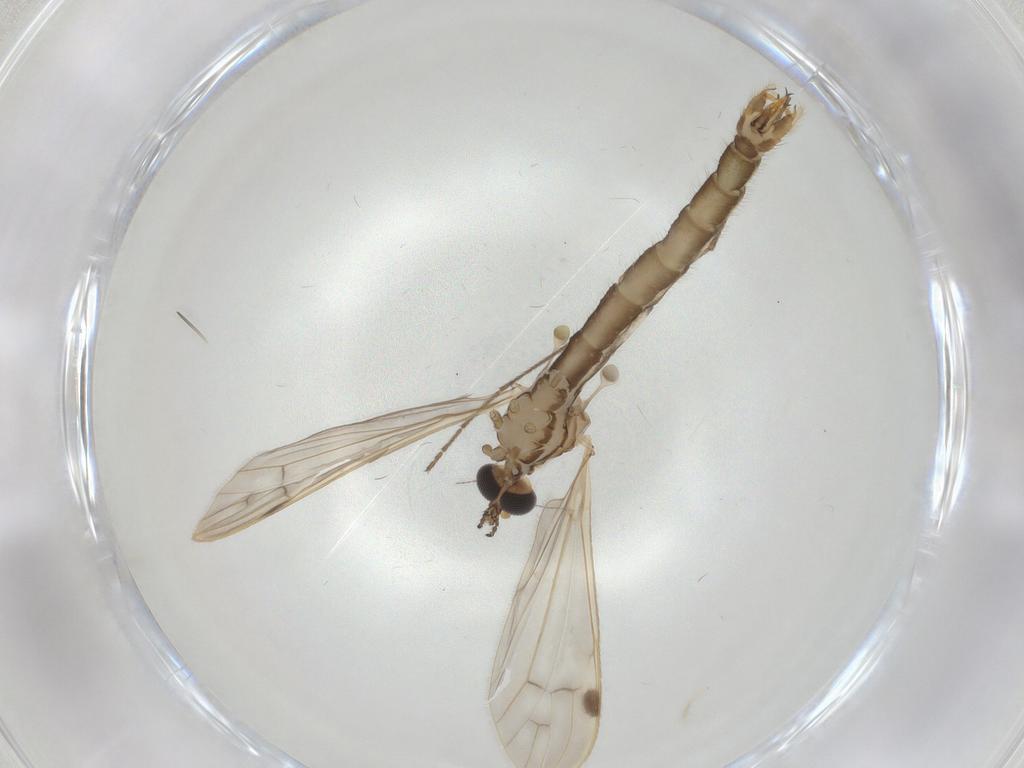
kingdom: Animalia
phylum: Arthropoda
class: Insecta
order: Diptera
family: Limoniidae
